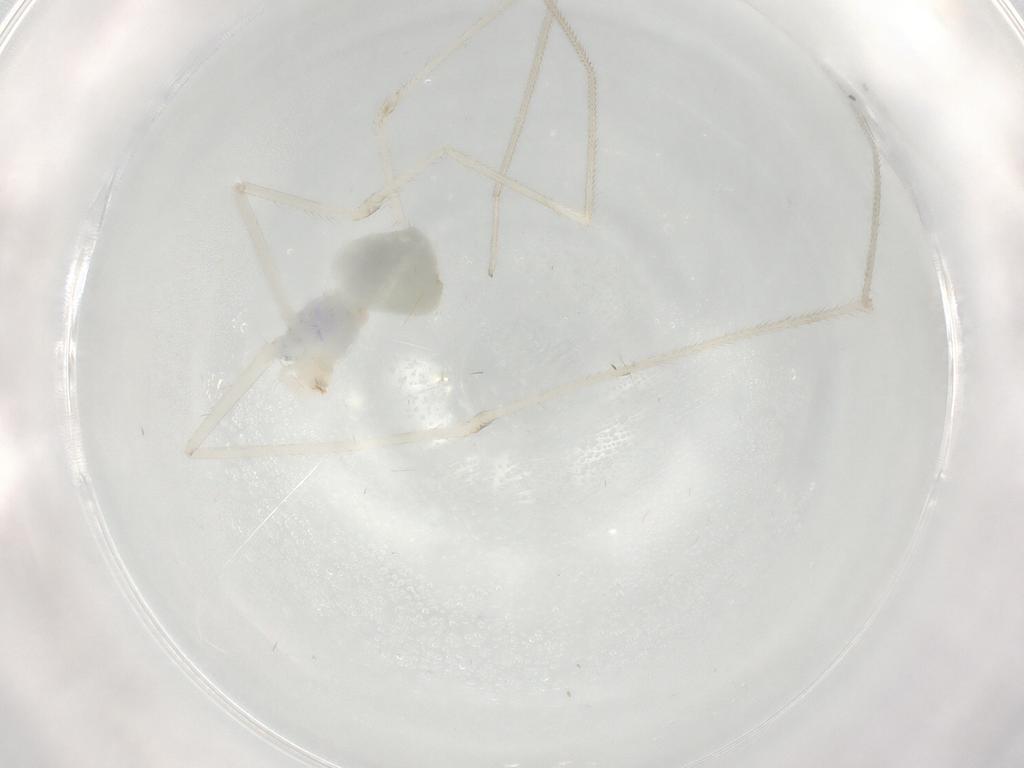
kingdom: Animalia
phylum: Arthropoda
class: Arachnida
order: Araneae
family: Pholcidae
